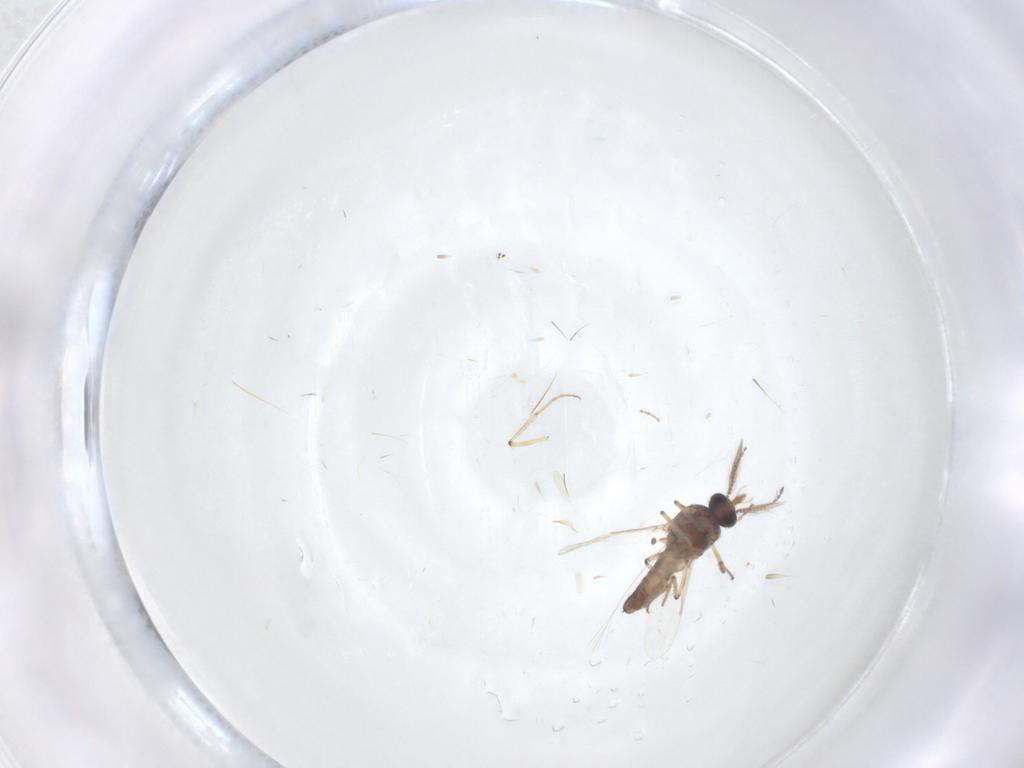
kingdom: Animalia
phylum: Arthropoda
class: Insecta
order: Diptera
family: Ceratopogonidae
